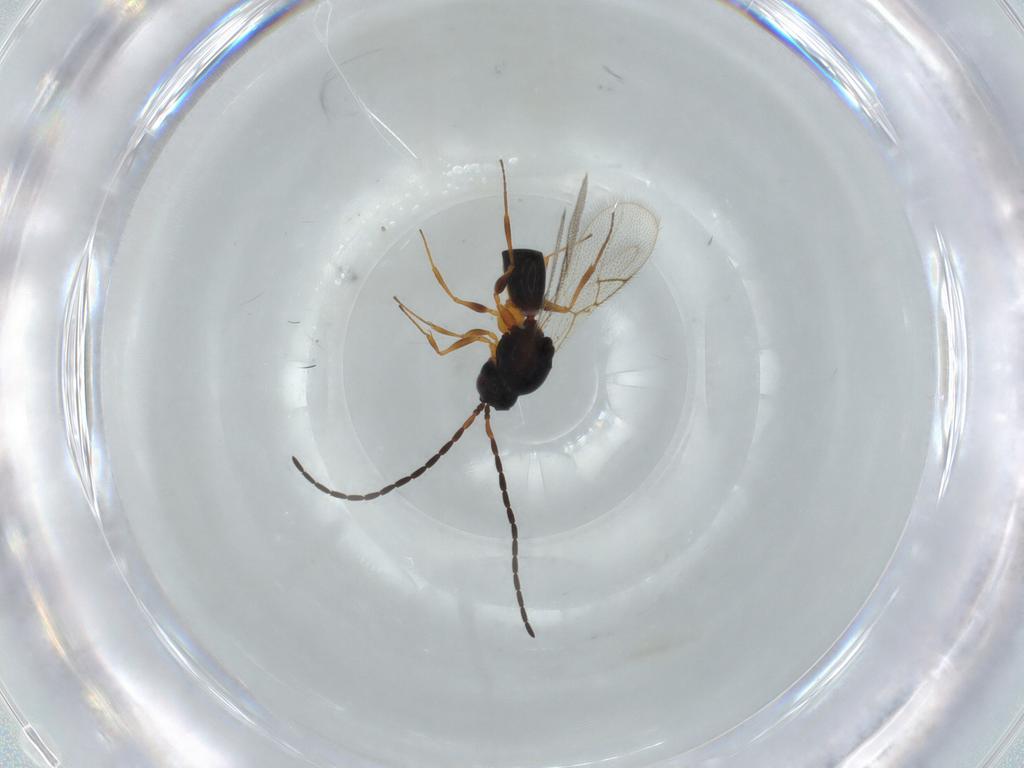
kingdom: Animalia
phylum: Arthropoda
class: Insecta
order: Hymenoptera
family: Figitidae
